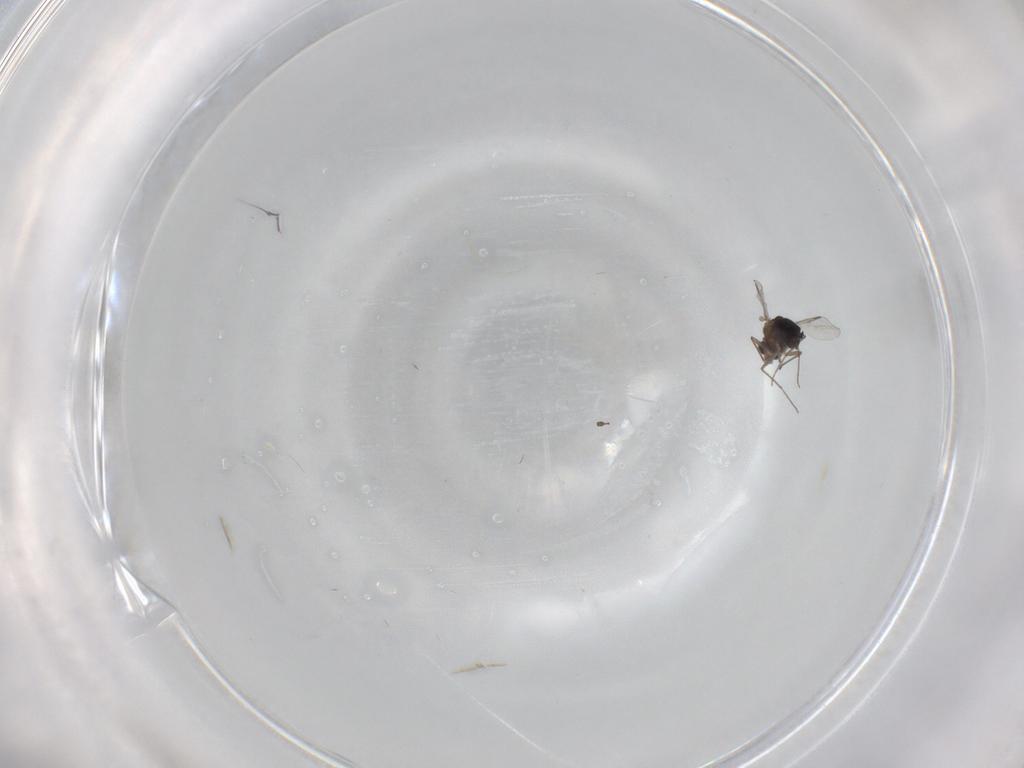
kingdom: Animalia
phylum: Arthropoda
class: Insecta
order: Diptera
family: Chironomidae
